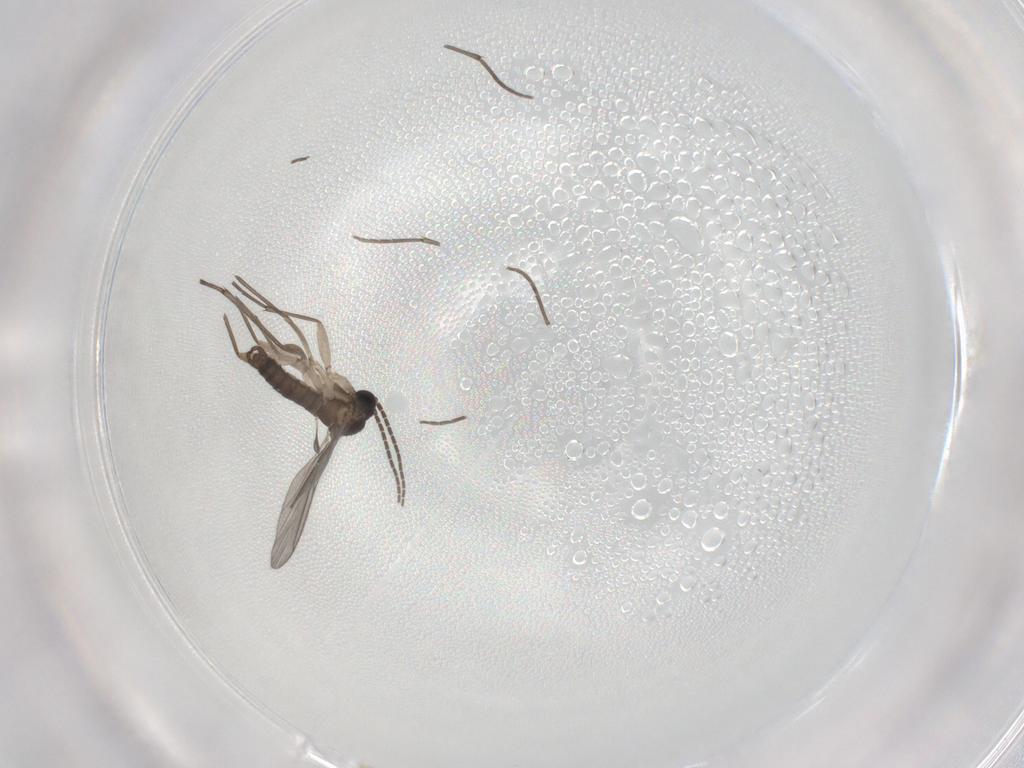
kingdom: Animalia
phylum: Arthropoda
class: Insecta
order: Diptera
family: Sciaridae
